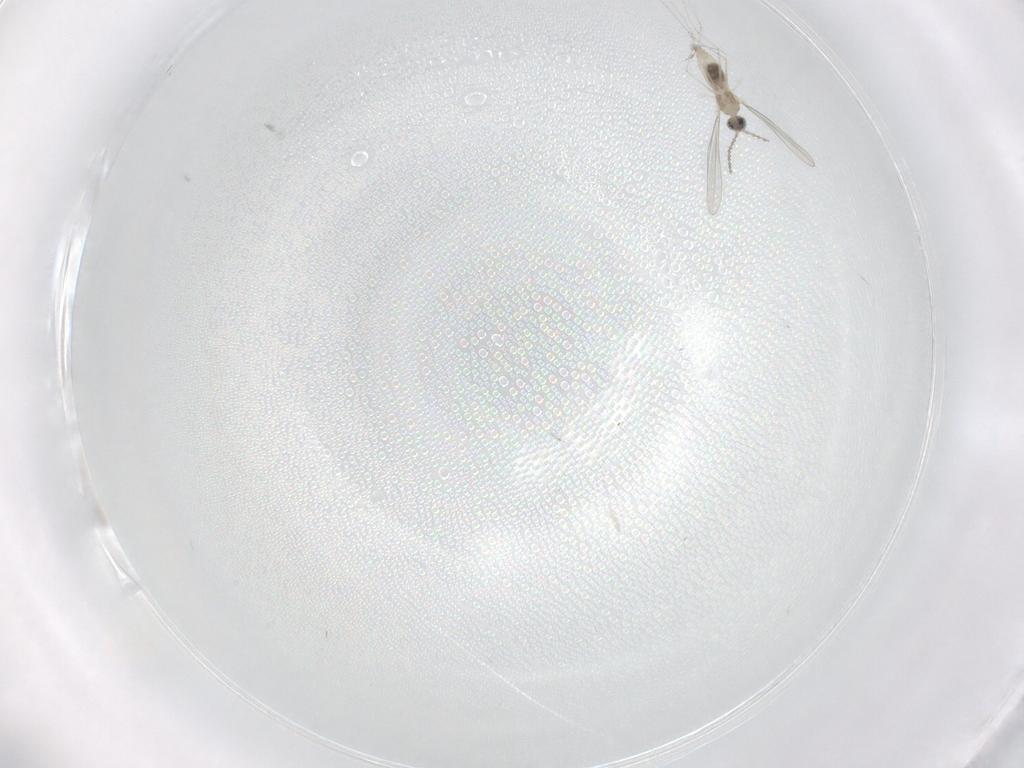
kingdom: Animalia
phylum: Arthropoda
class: Insecta
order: Diptera
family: Cecidomyiidae
